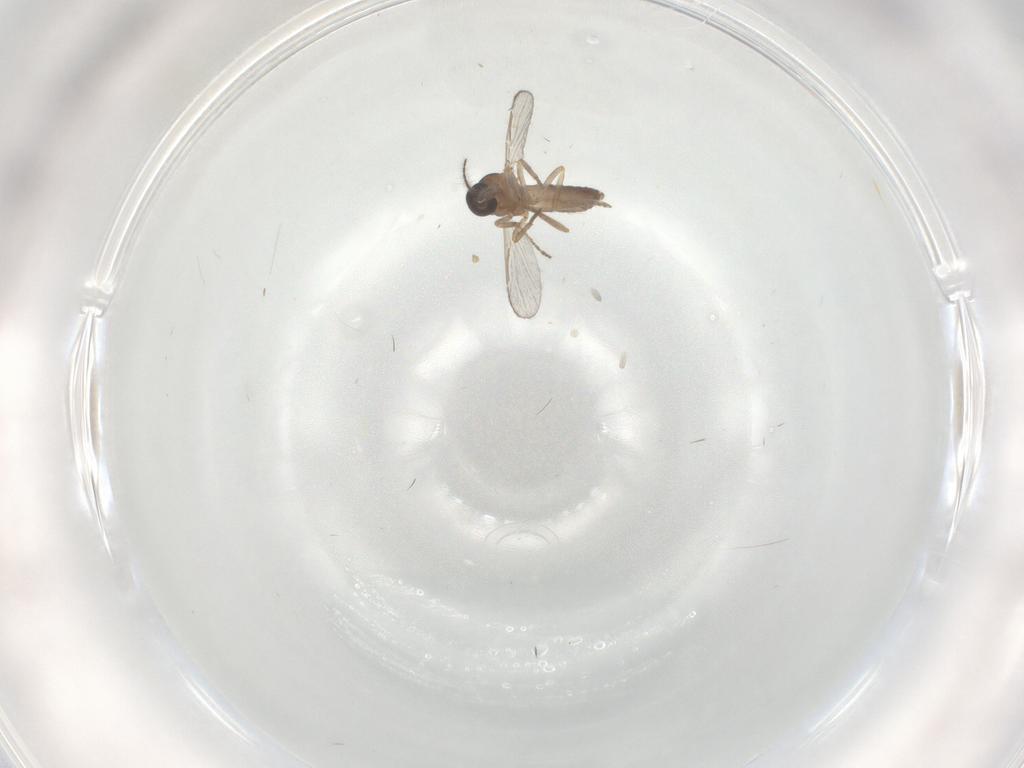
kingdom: Animalia
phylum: Arthropoda
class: Insecta
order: Diptera
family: Ceratopogonidae
